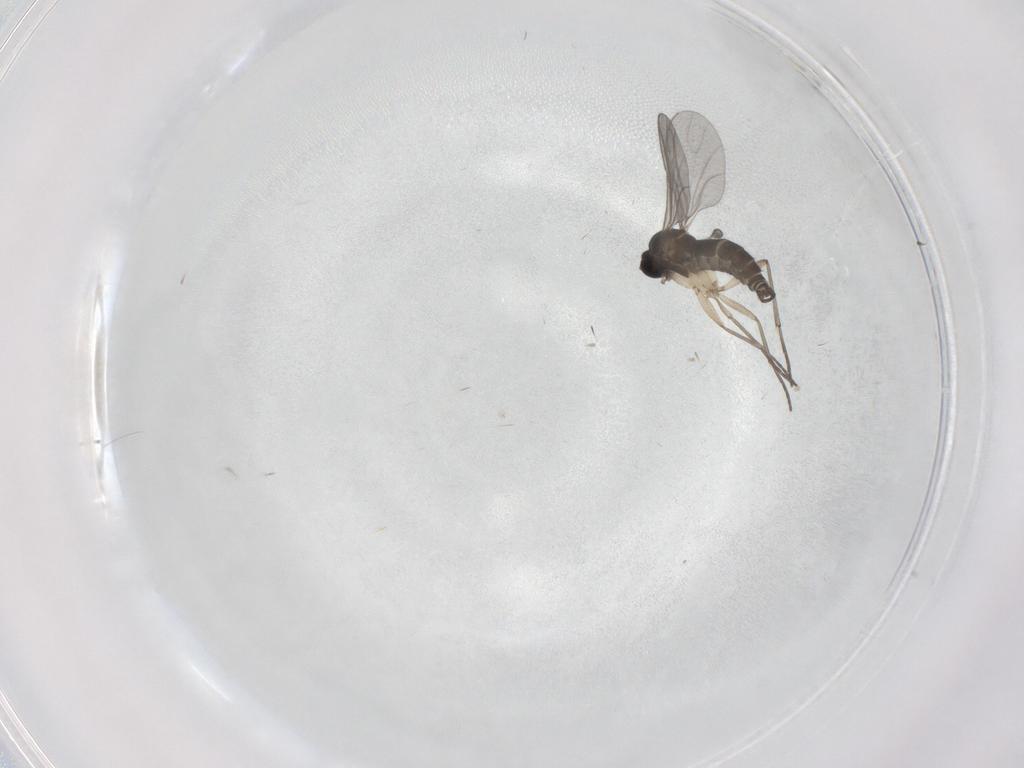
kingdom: Animalia
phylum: Arthropoda
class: Insecta
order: Diptera
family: Sciaridae
